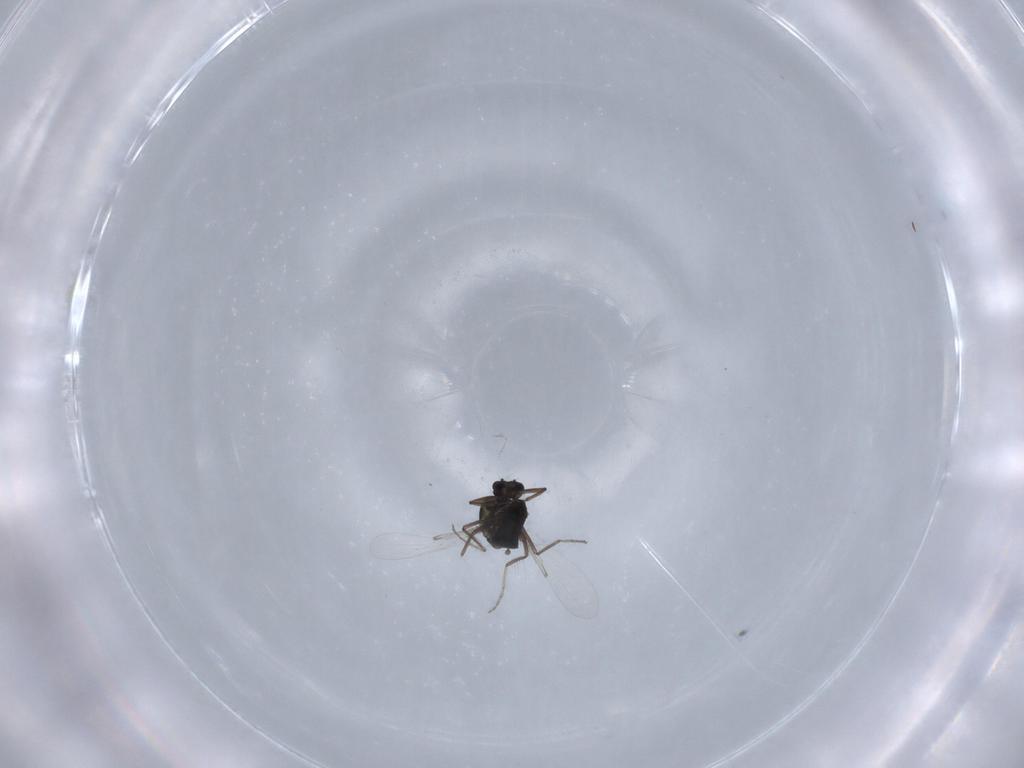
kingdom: Animalia
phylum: Arthropoda
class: Insecta
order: Diptera
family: Ceratopogonidae
